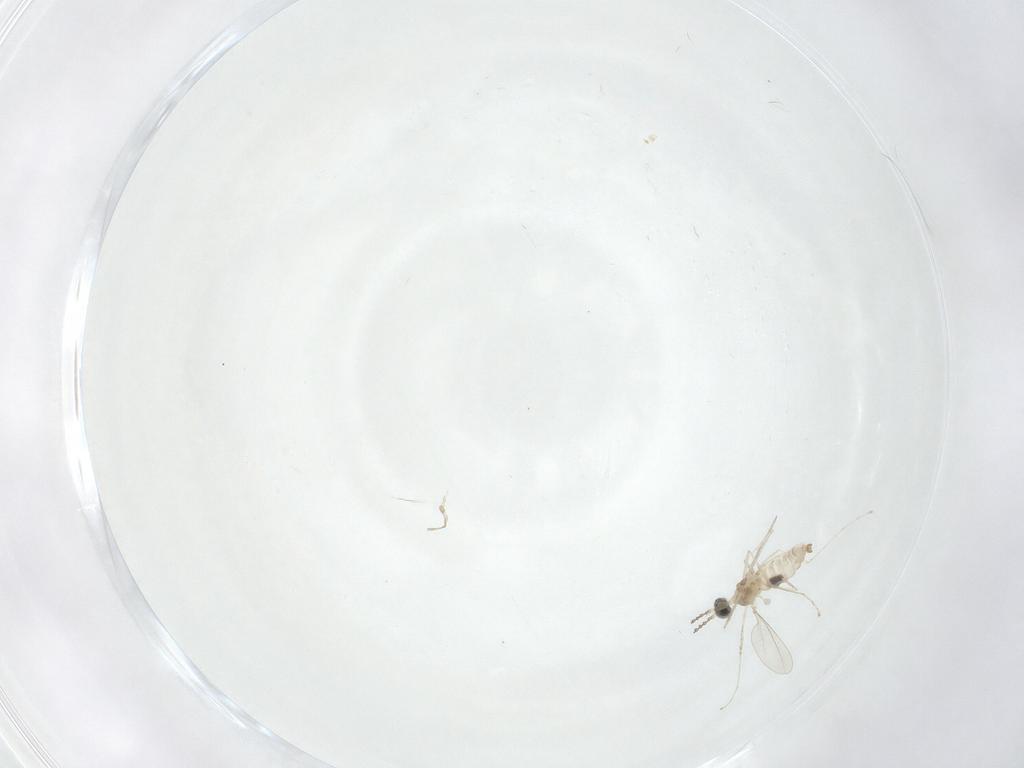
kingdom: Animalia
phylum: Arthropoda
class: Insecta
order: Diptera
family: Cecidomyiidae
